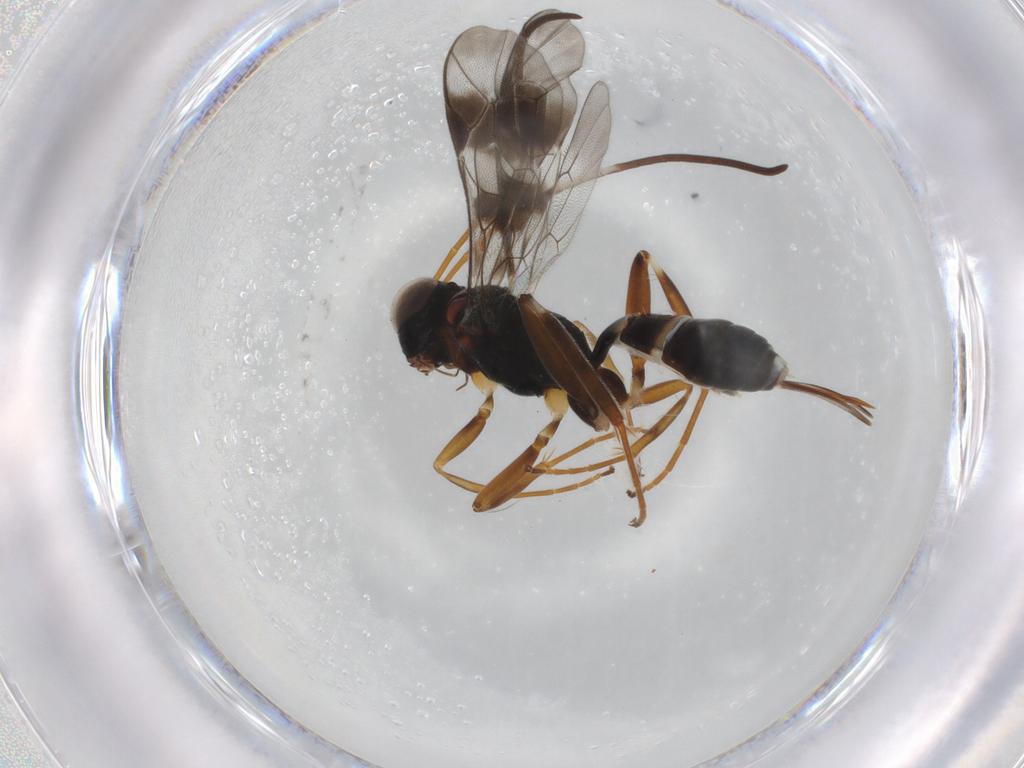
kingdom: Animalia
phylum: Arthropoda
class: Insecta
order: Hymenoptera
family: Ichneumonidae
